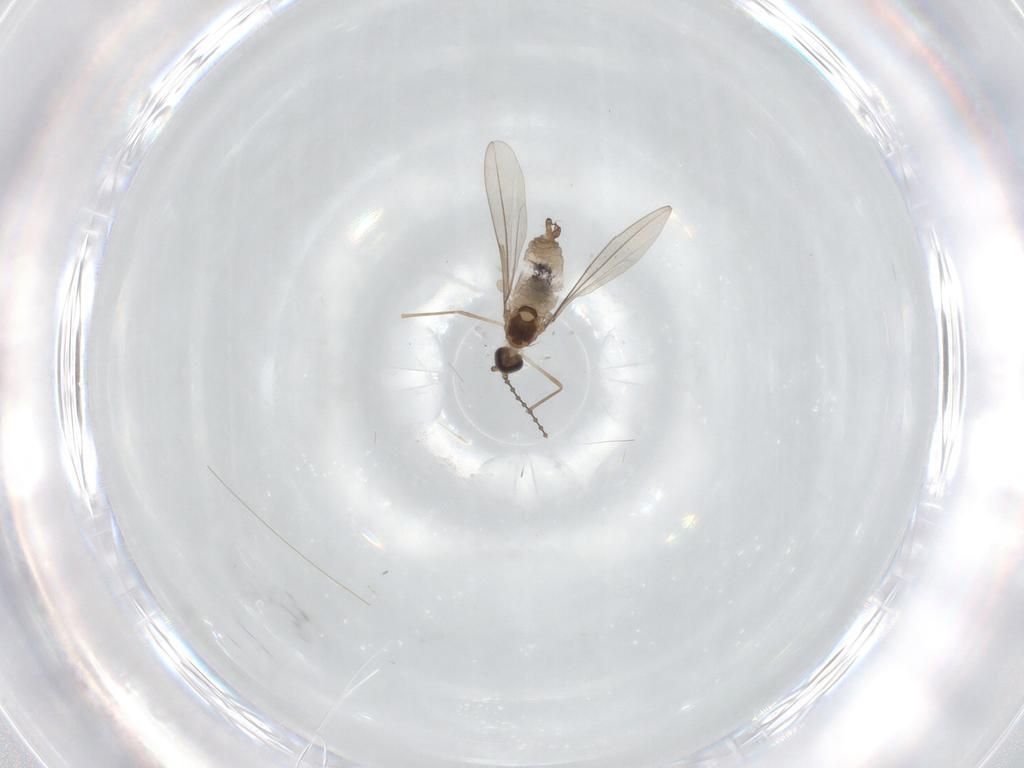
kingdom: Animalia
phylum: Arthropoda
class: Insecta
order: Diptera
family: Cecidomyiidae
